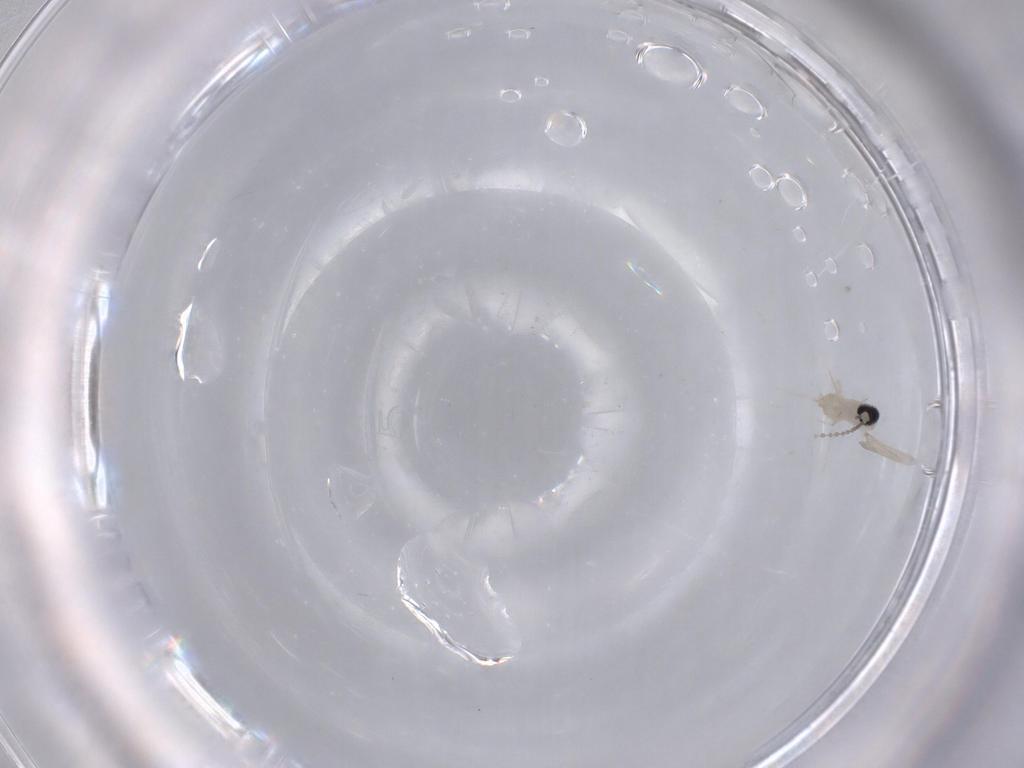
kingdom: Animalia
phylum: Arthropoda
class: Insecta
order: Diptera
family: Cecidomyiidae
